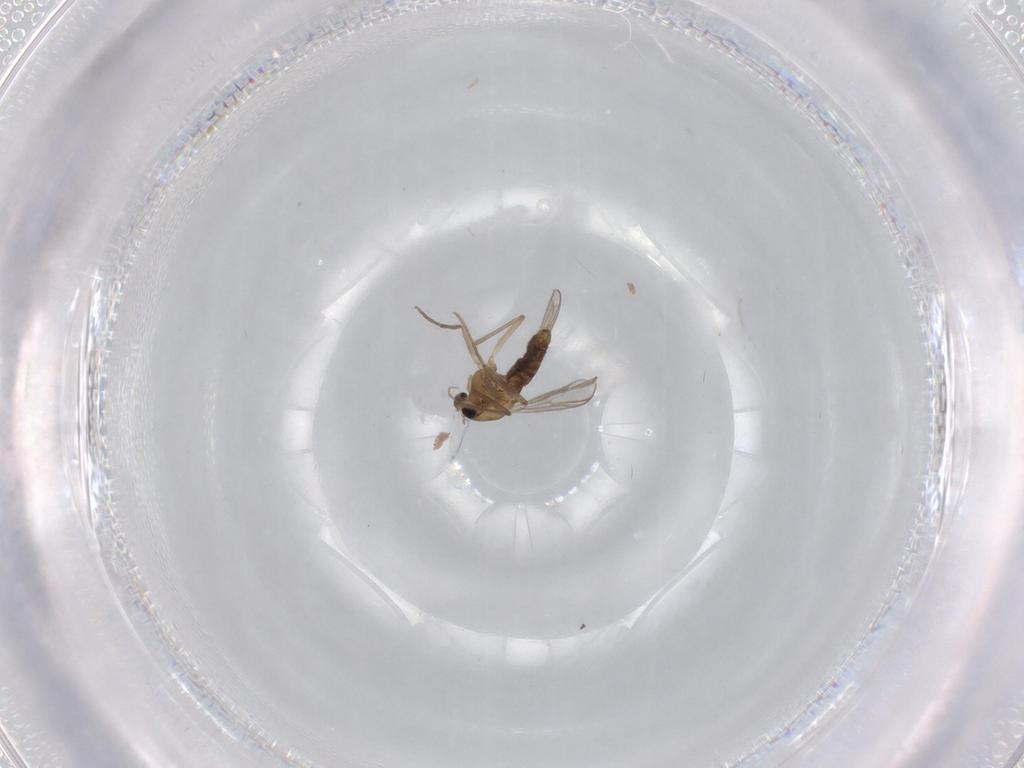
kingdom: Animalia
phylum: Arthropoda
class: Insecta
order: Diptera
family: Chironomidae
